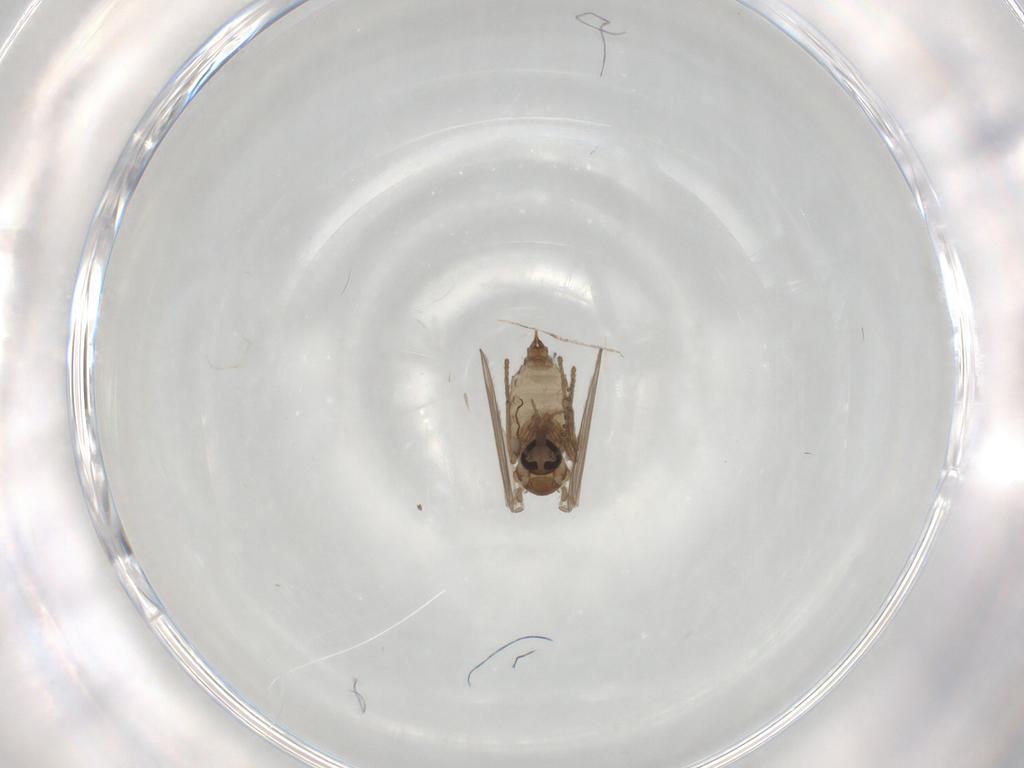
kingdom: Animalia
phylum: Arthropoda
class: Insecta
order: Diptera
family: Psychodidae
